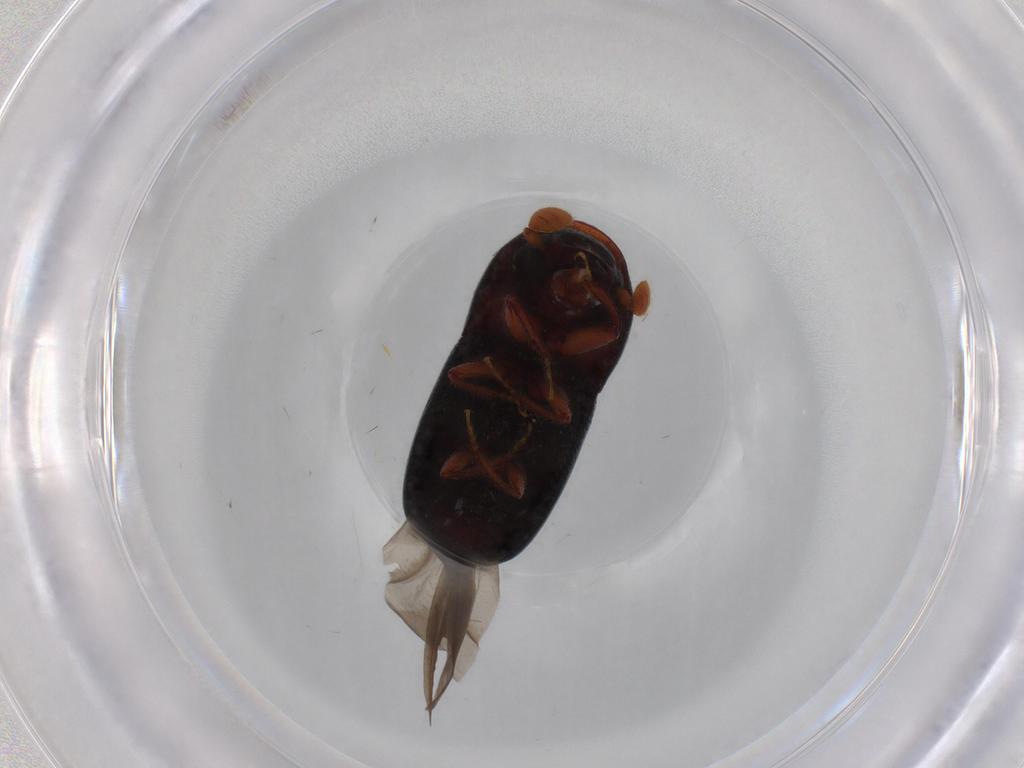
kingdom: Animalia
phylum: Arthropoda
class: Insecta
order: Coleoptera
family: Curculionidae
